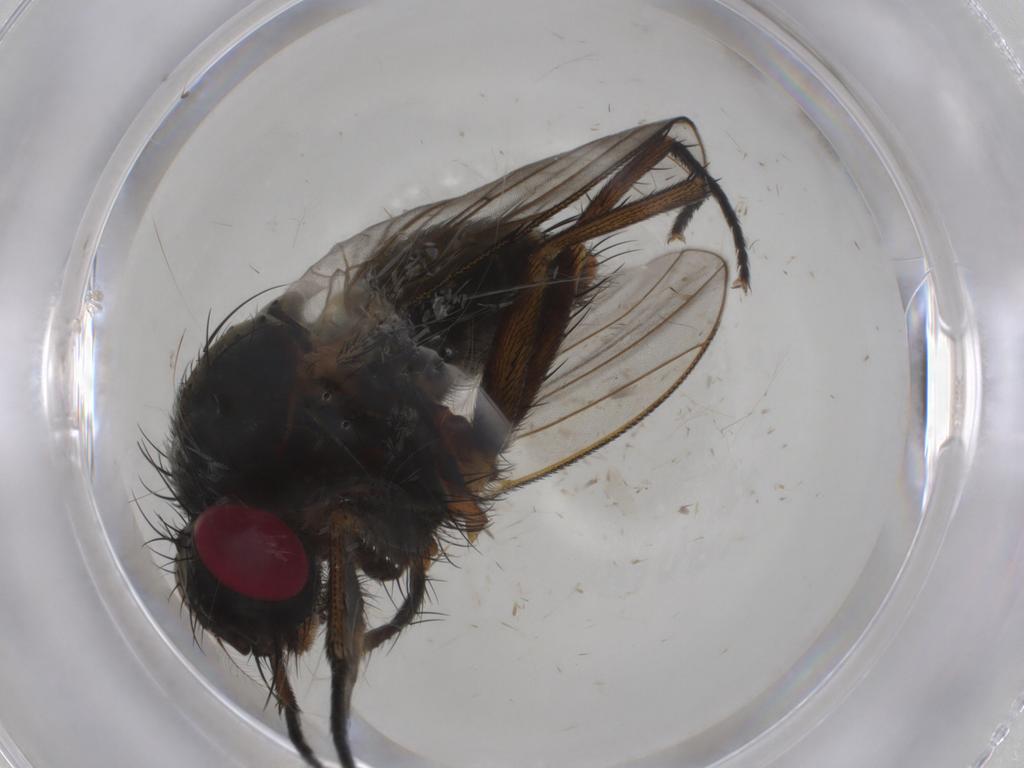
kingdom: Animalia
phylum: Arthropoda
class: Insecta
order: Diptera
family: Muscidae
